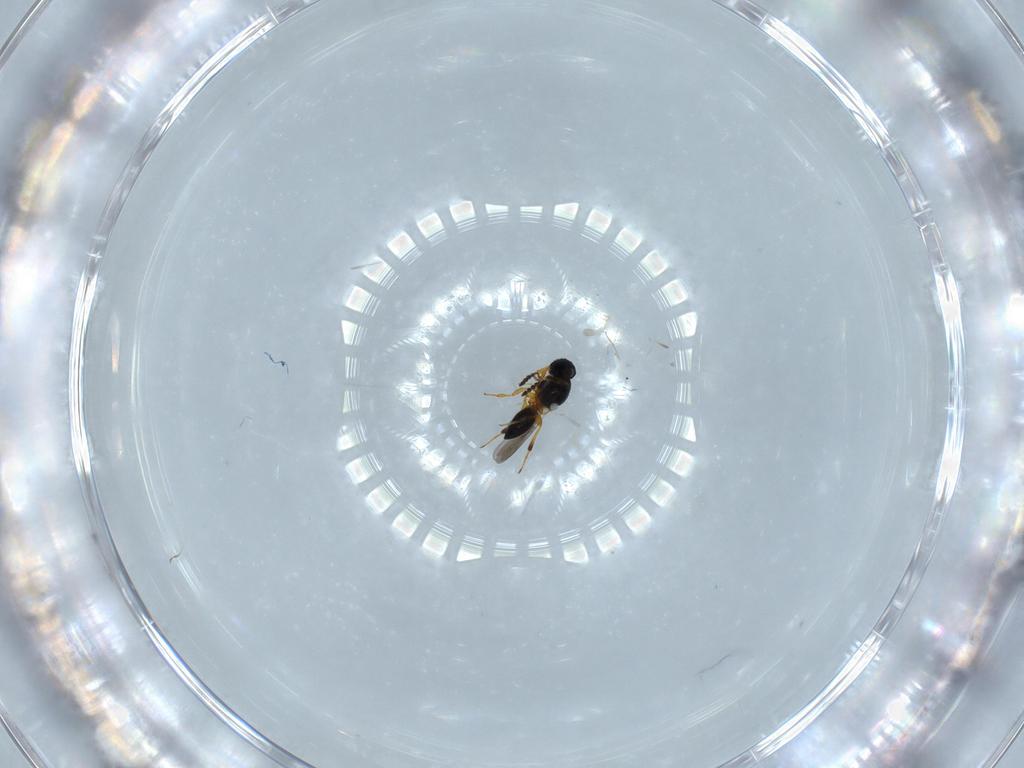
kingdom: Animalia
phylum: Arthropoda
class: Insecta
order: Hymenoptera
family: Platygastridae
